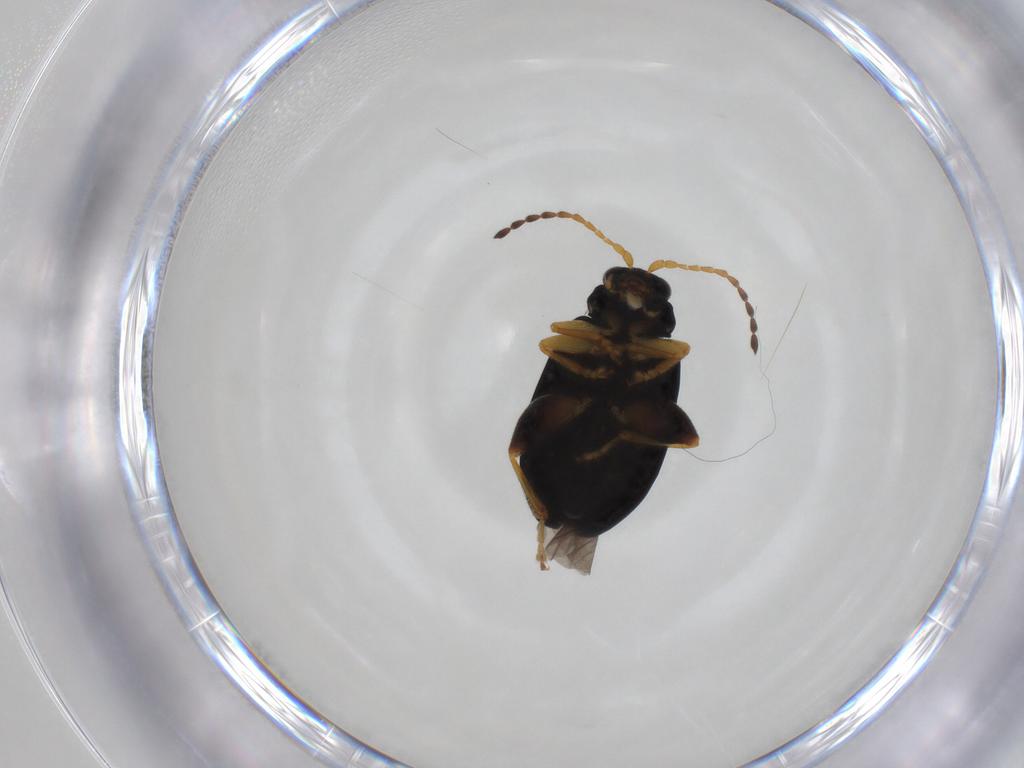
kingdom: Animalia
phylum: Arthropoda
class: Insecta
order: Coleoptera
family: Chrysomelidae
